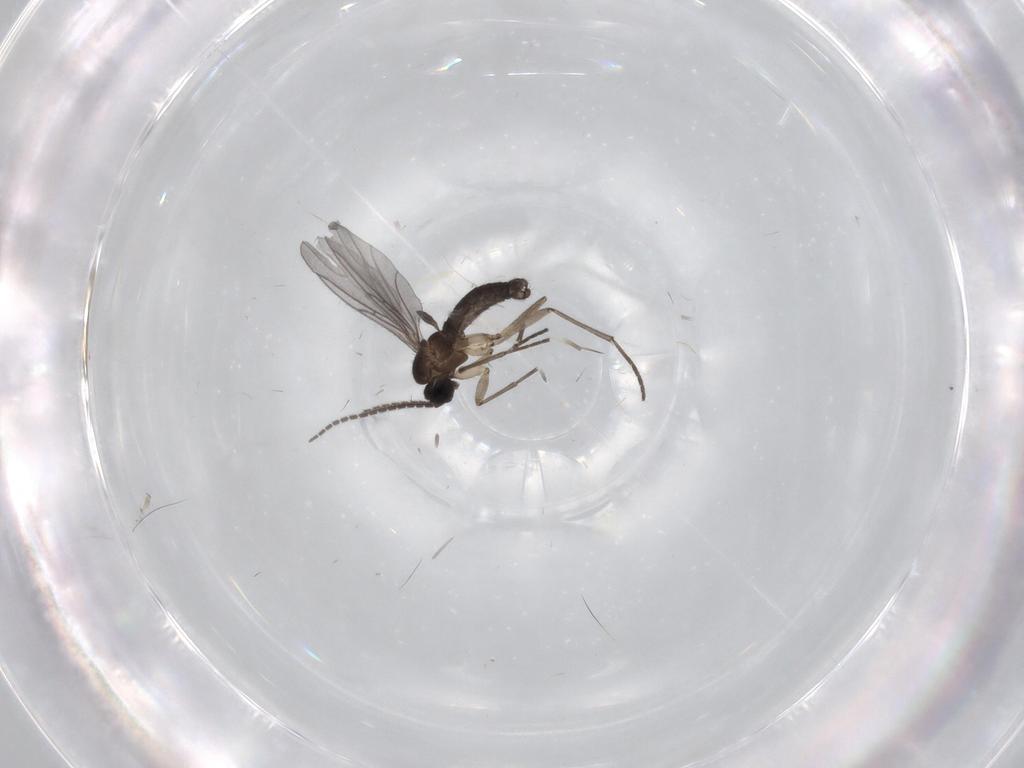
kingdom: Animalia
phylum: Arthropoda
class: Insecta
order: Diptera
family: Sciaridae
